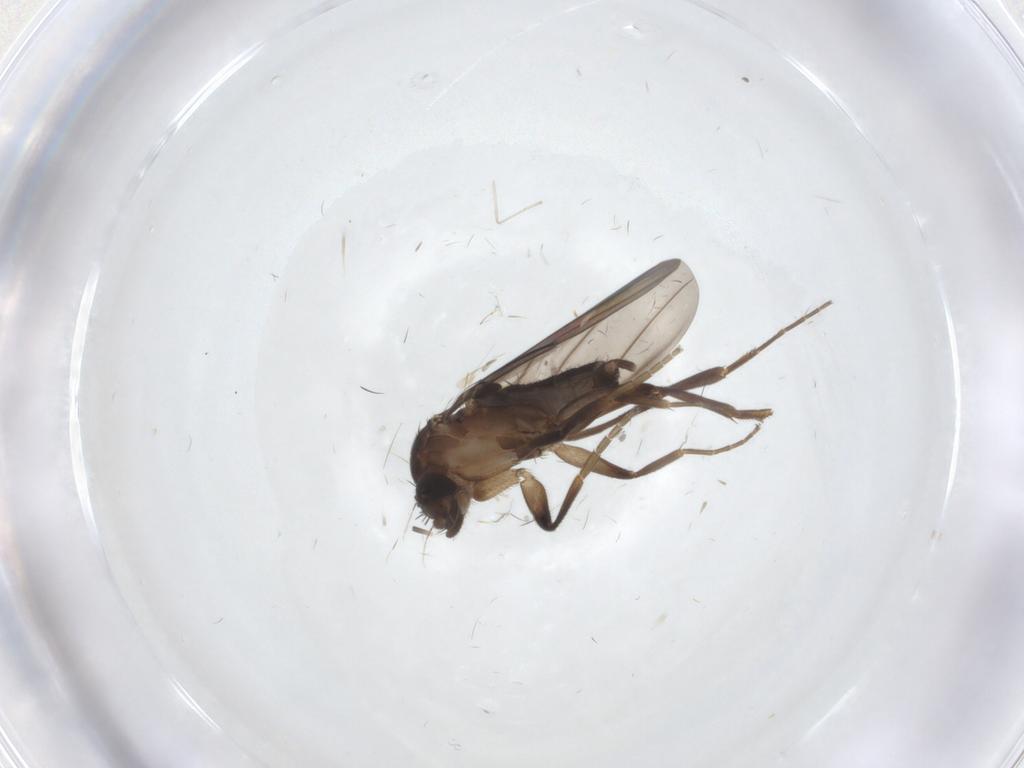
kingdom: Animalia
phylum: Arthropoda
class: Insecta
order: Diptera
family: Phoridae
